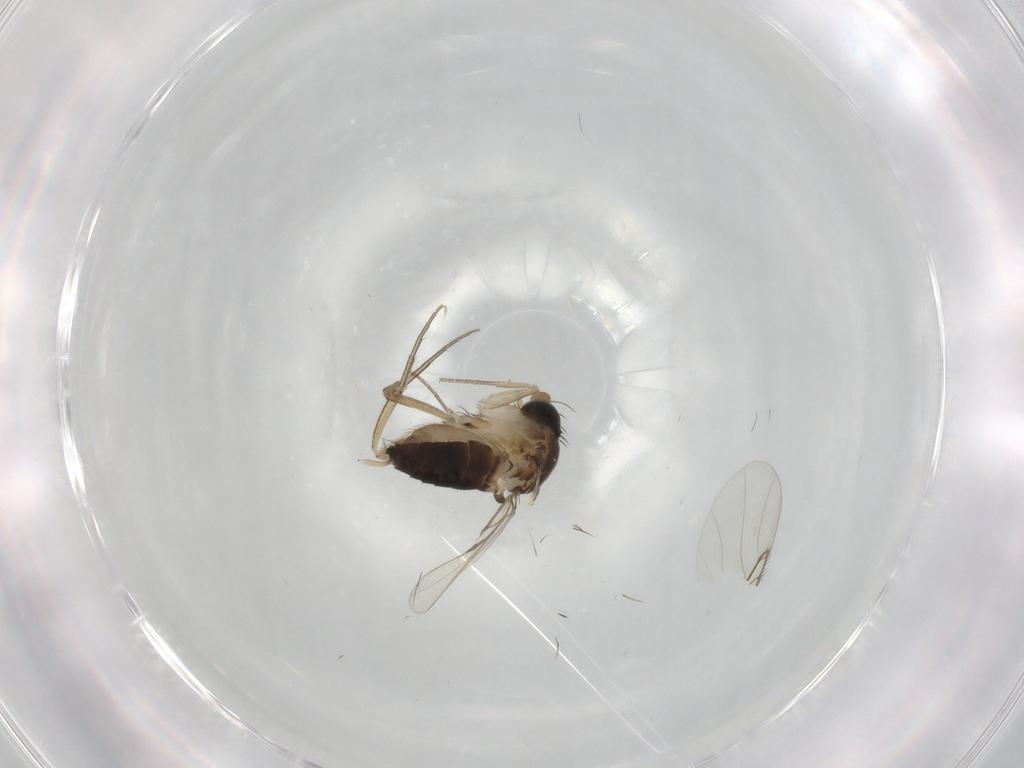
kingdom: Animalia
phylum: Arthropoda
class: Insecta
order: Diptera
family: Phoridae
